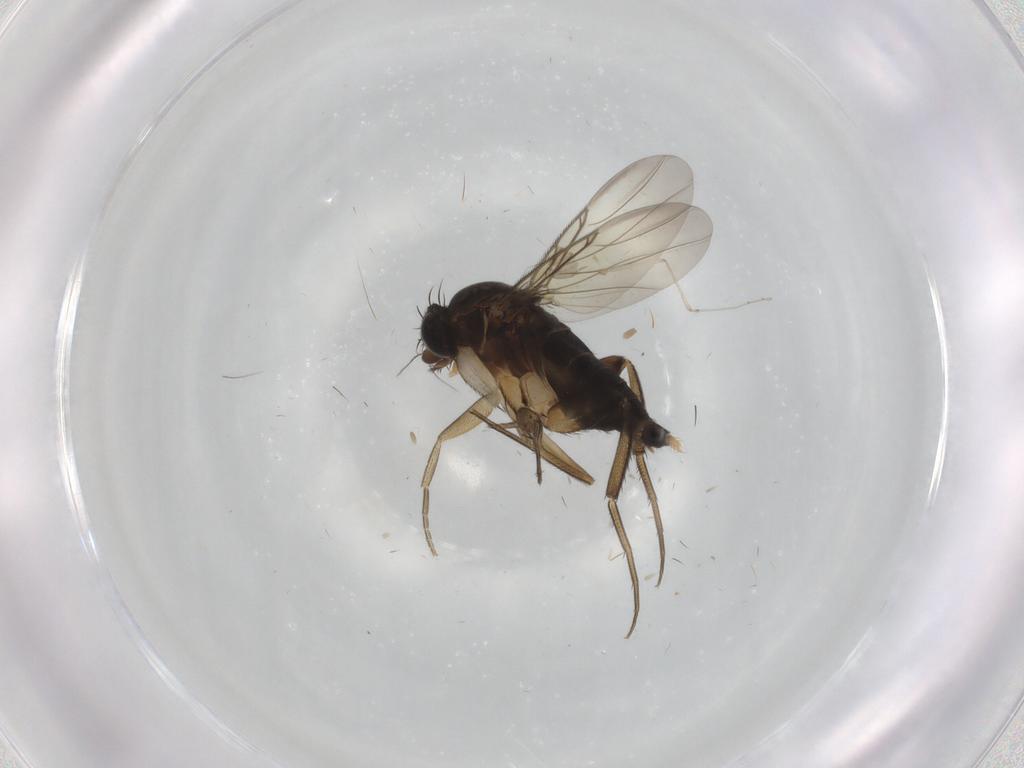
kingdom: Animalia
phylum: Arthropoda
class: Insecta
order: Diptera
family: Phoridae
